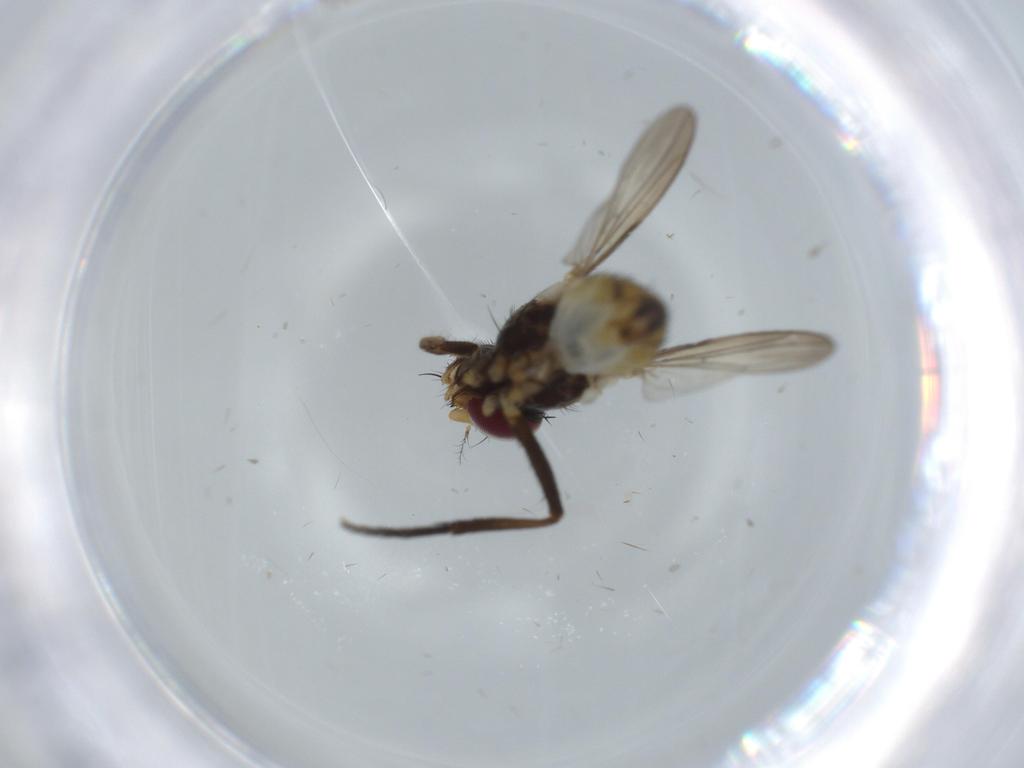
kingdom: Animalia
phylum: Arthropoda
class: Insecta
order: Diptera
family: Anthomyiidae
